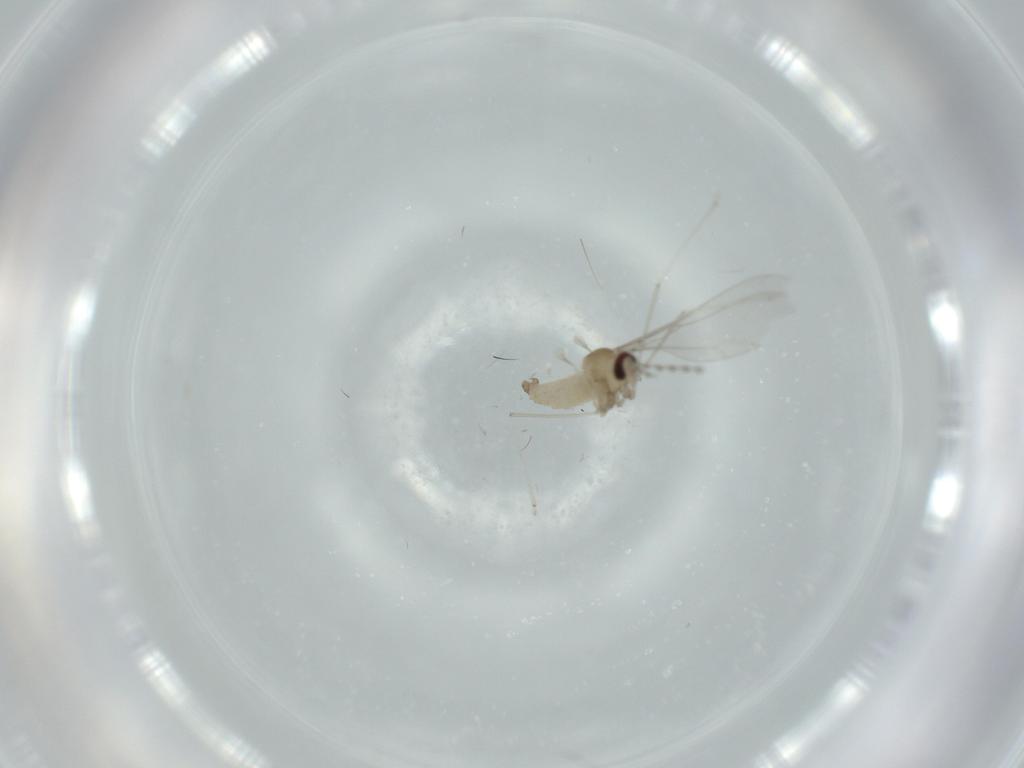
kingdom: Animalia
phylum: Arthropoda
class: Insecta
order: Diptera
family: Cecidomyiidae
